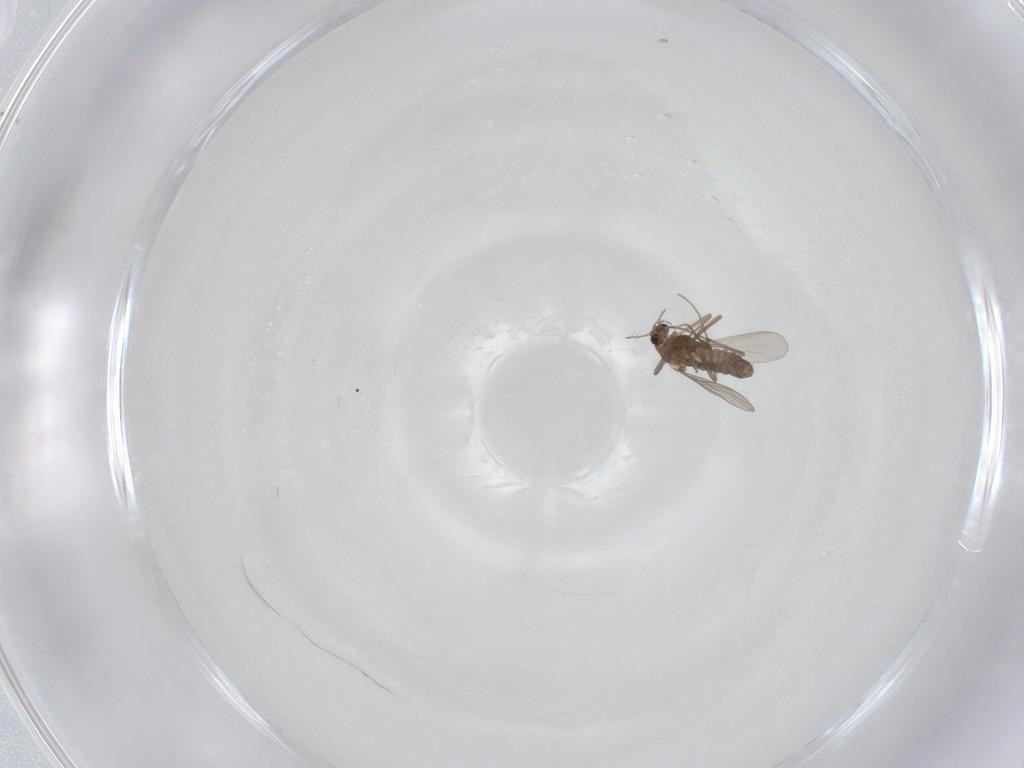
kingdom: Animalia
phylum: Arthropoda
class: Insecta
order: Diptera
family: Chironomidae
